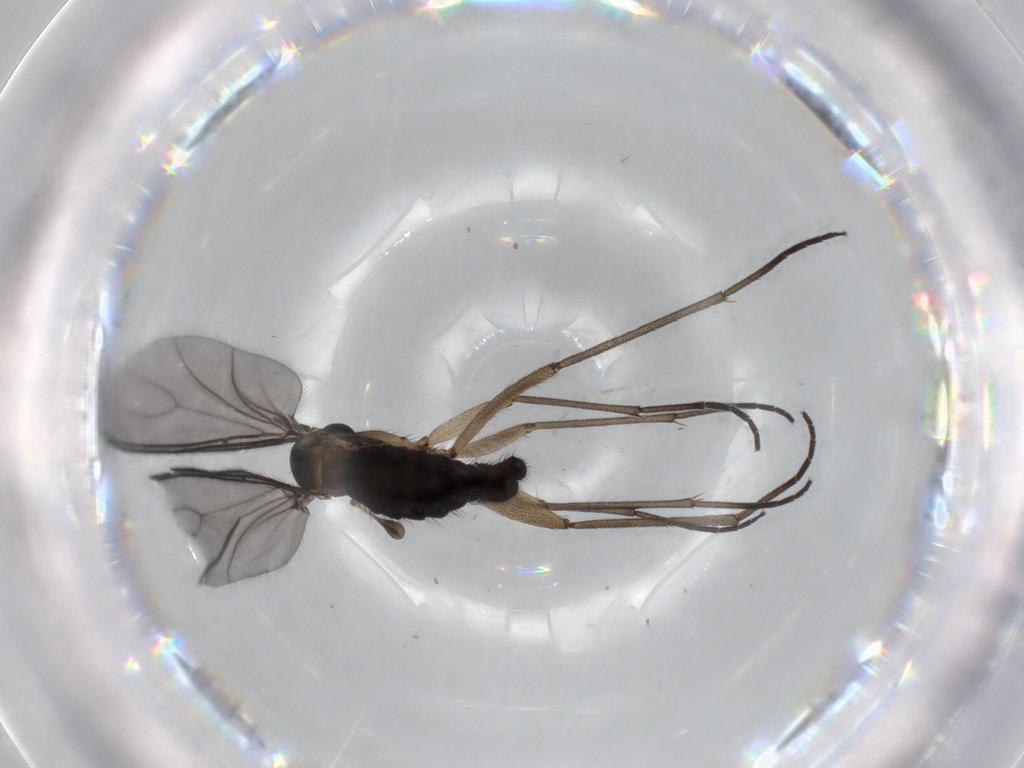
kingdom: Animalia
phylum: Arthropoda
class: Insecta
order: Diptera
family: Sciaridae
